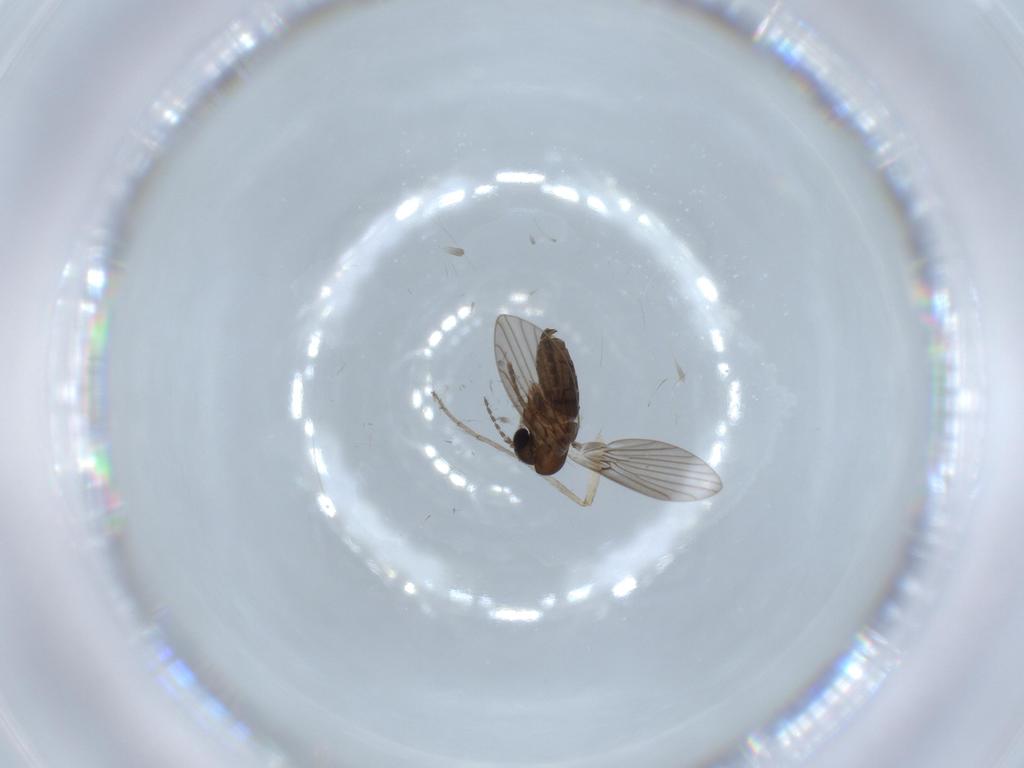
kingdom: Animalia
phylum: Arthropoda
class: Insecta
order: Diptera
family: Chironomidae
